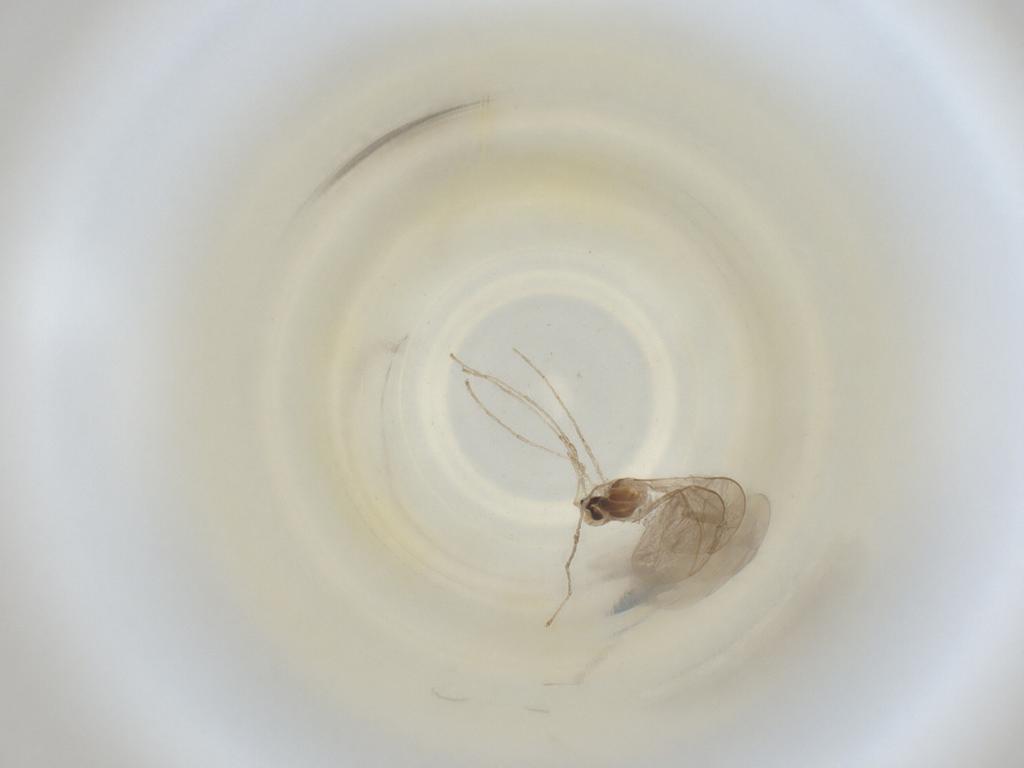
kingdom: Animalia
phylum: Arthropoda
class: Insecta
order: Diptera
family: Cecidomyiidae
